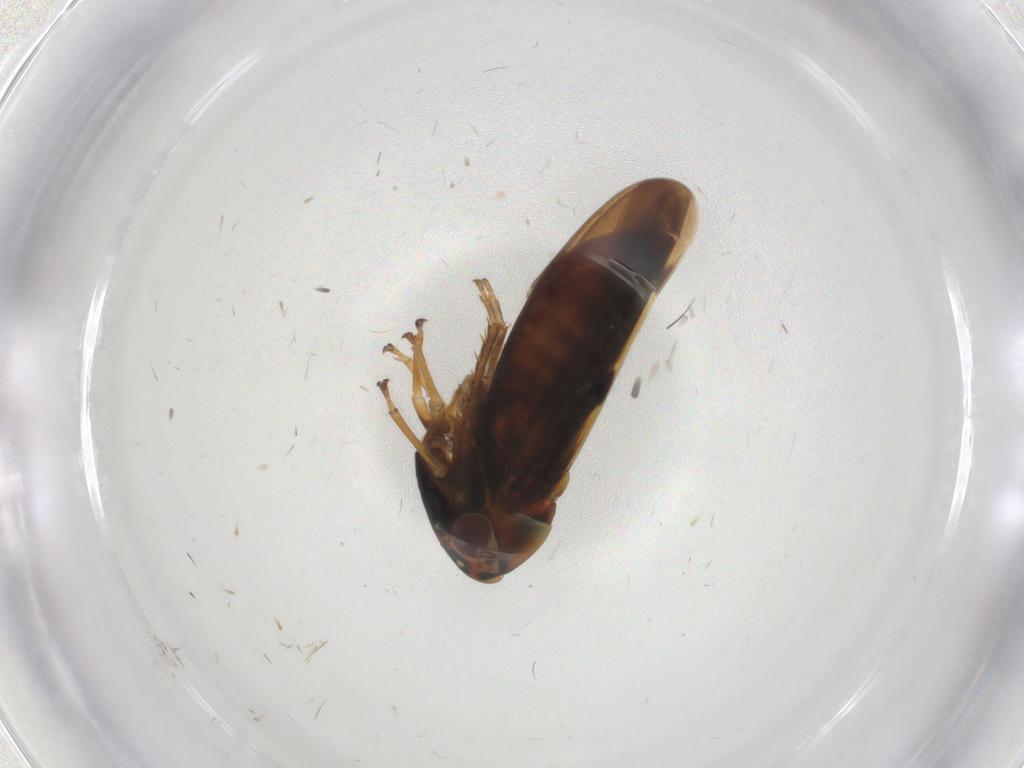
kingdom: Animalia
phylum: Arthropoda
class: Insecta
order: Hemiptera
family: Cicadellidae
